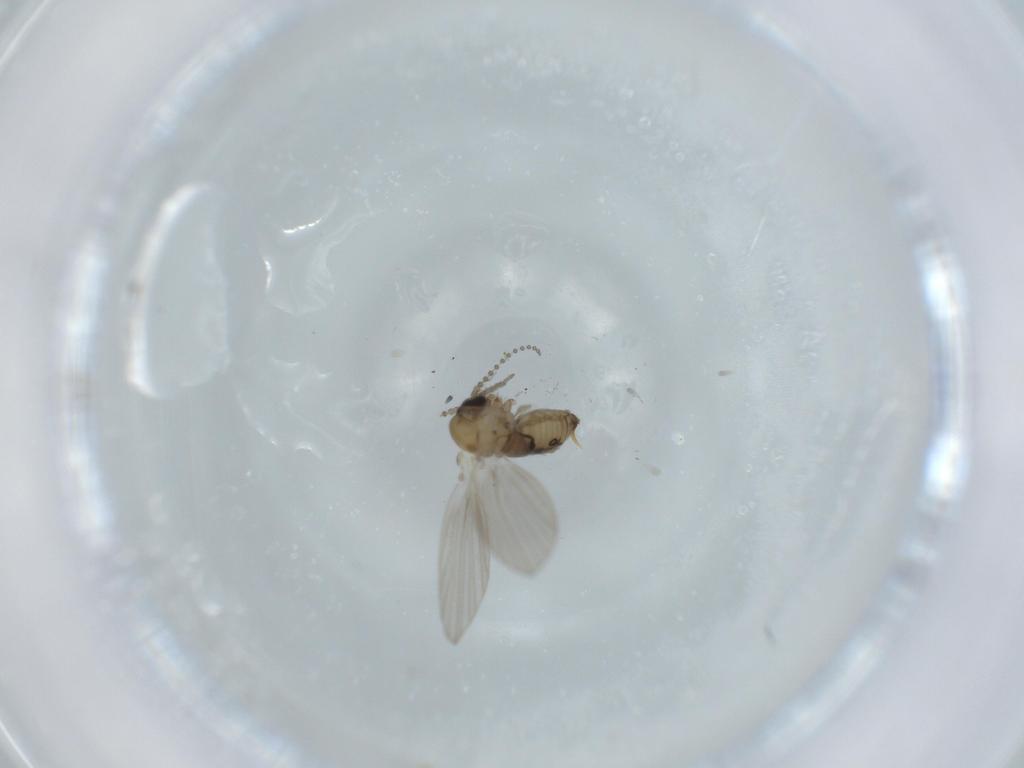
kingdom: Animalia
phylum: Arthropoda
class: Insecta
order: Diptera
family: Psychodidae
